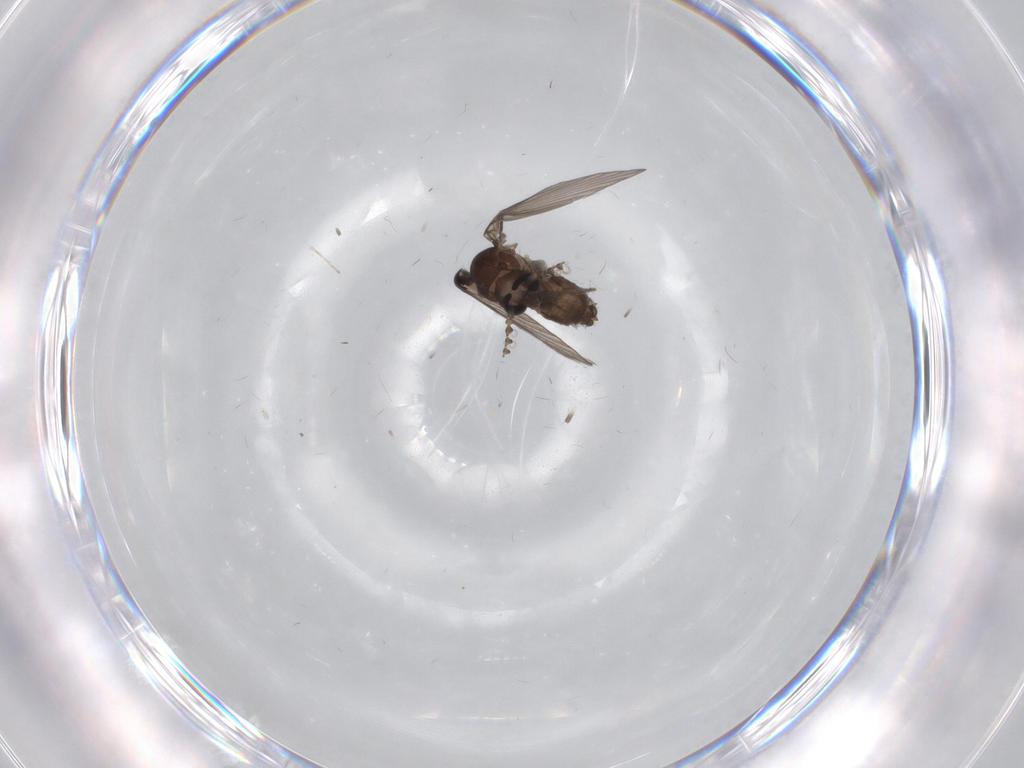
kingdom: Animalia
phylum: Arthropoda
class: Insecta
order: Diptera
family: Psychodidae
